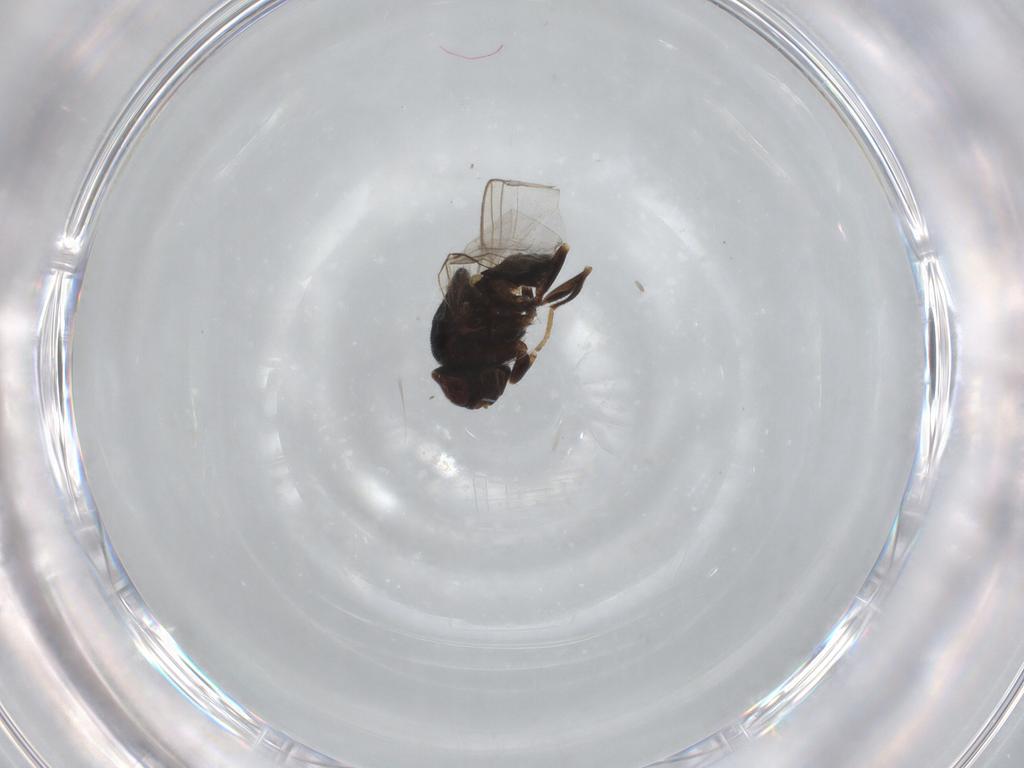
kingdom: Animalia
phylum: Arthropoda
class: Insecta
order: Diptera
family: Chloropidae
